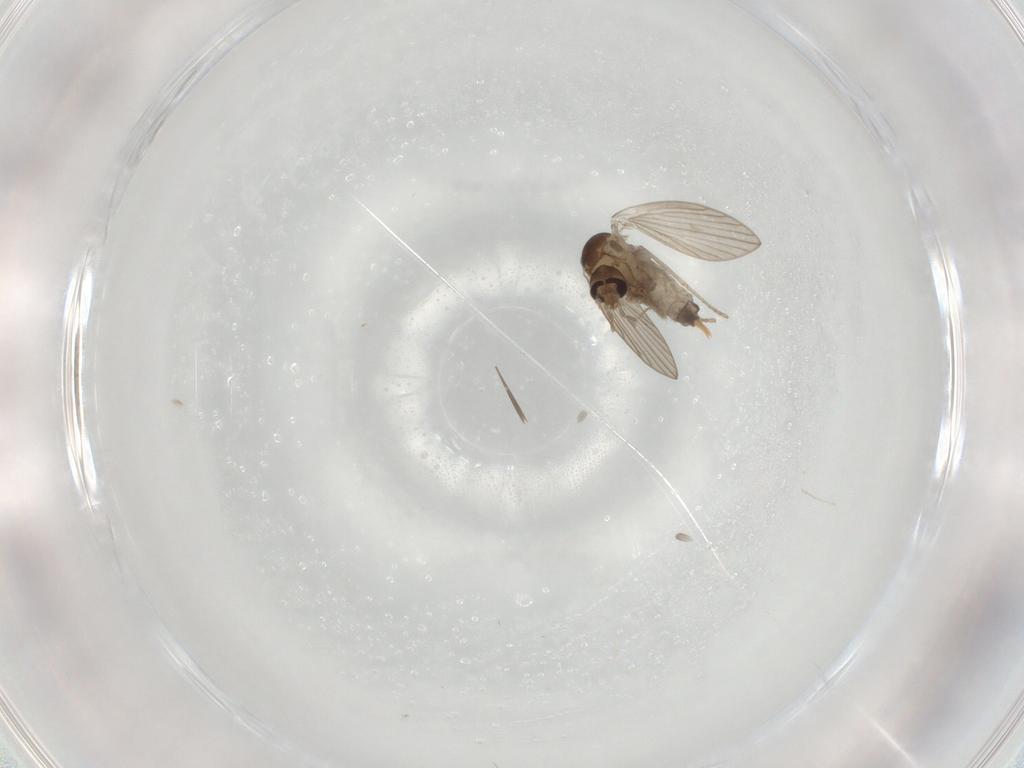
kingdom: Animalia
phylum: Arthropoda
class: Insecta
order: Diptera
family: Psychodidae
